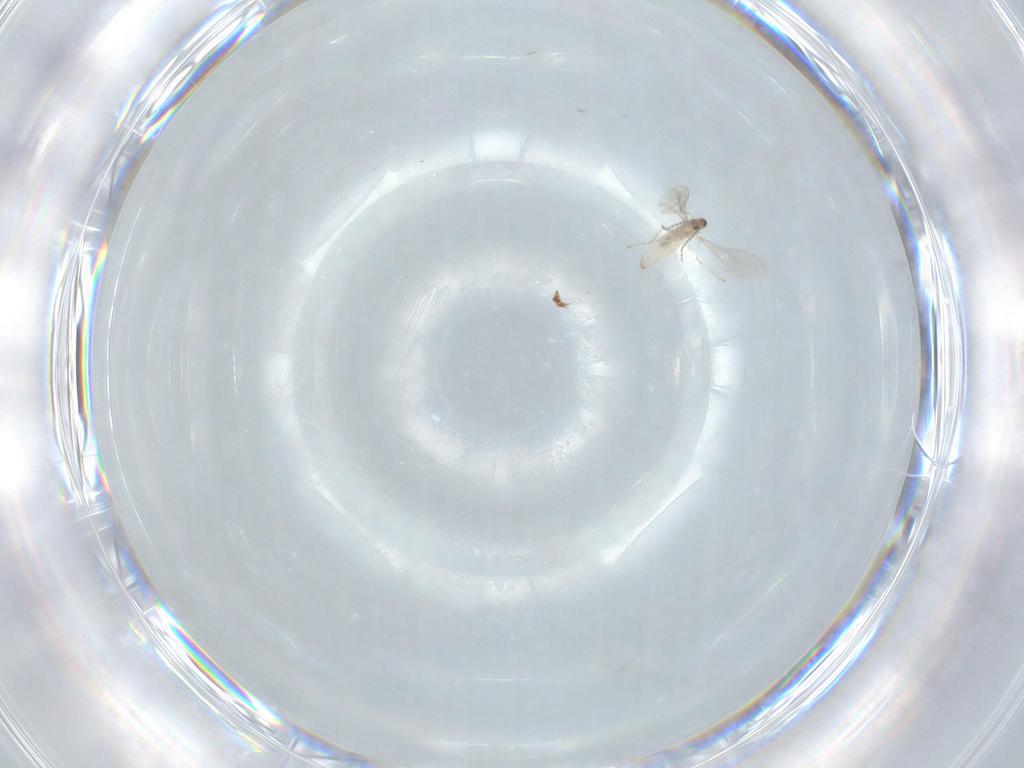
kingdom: Animalia
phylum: Arthropoda
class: Insecta
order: Diptera
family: Cecidomyiidae
